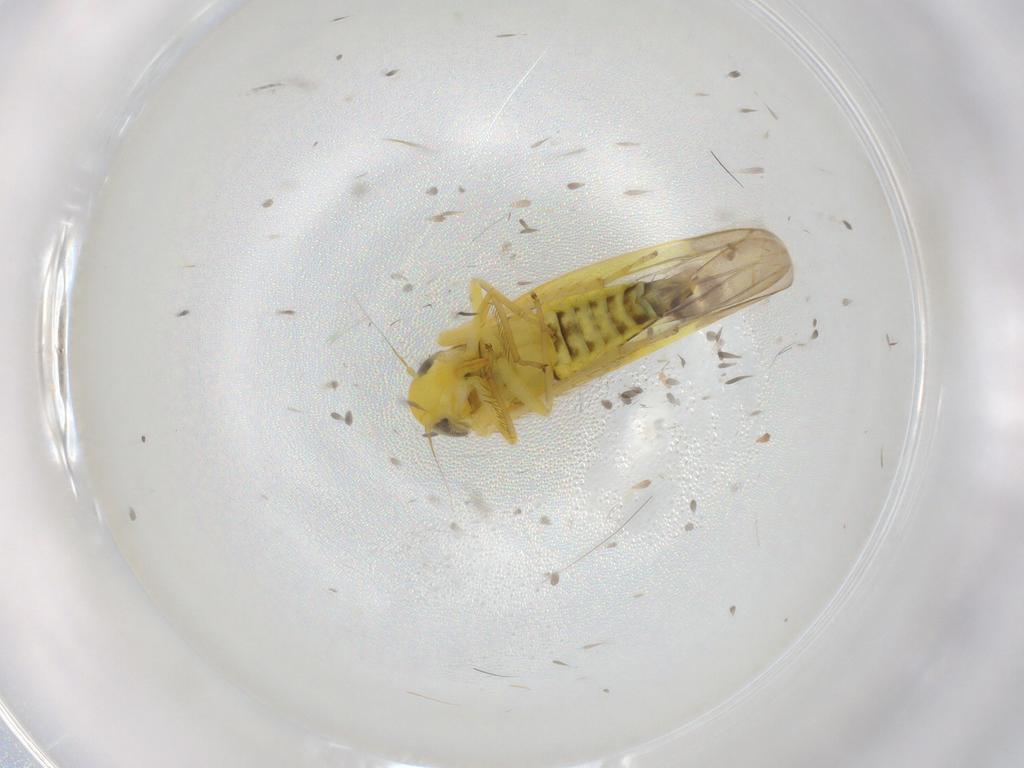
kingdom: Animalia
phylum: Arthropoda
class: Insecta
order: Hemiptera
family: Cicadellidae
